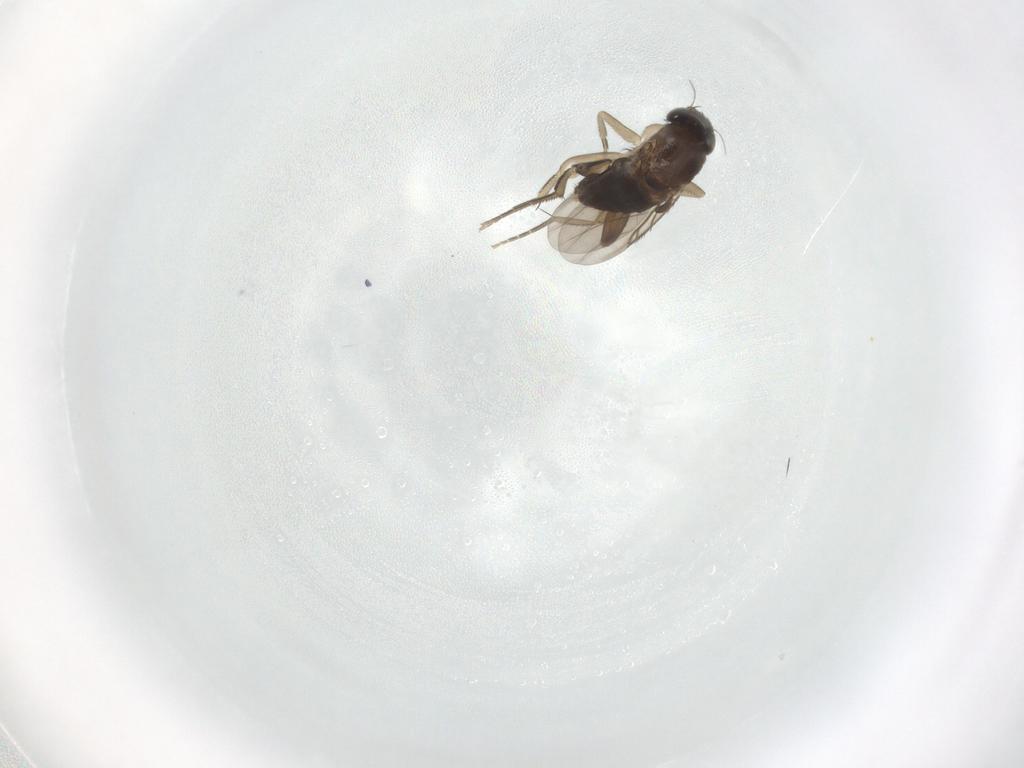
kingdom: Animalia
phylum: Arthropoda
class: Insecta
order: Diptera
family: Phoridae
